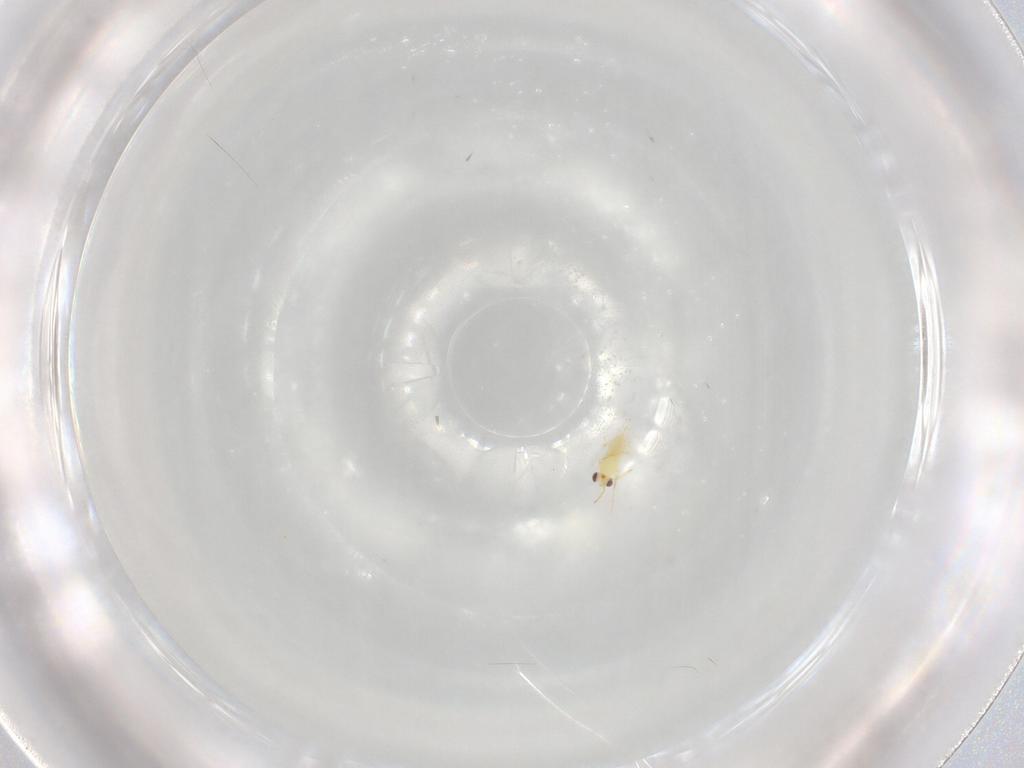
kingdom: Animalia
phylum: Arthropoda
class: Insecta
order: Hymenoptera
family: Aphelinidae
